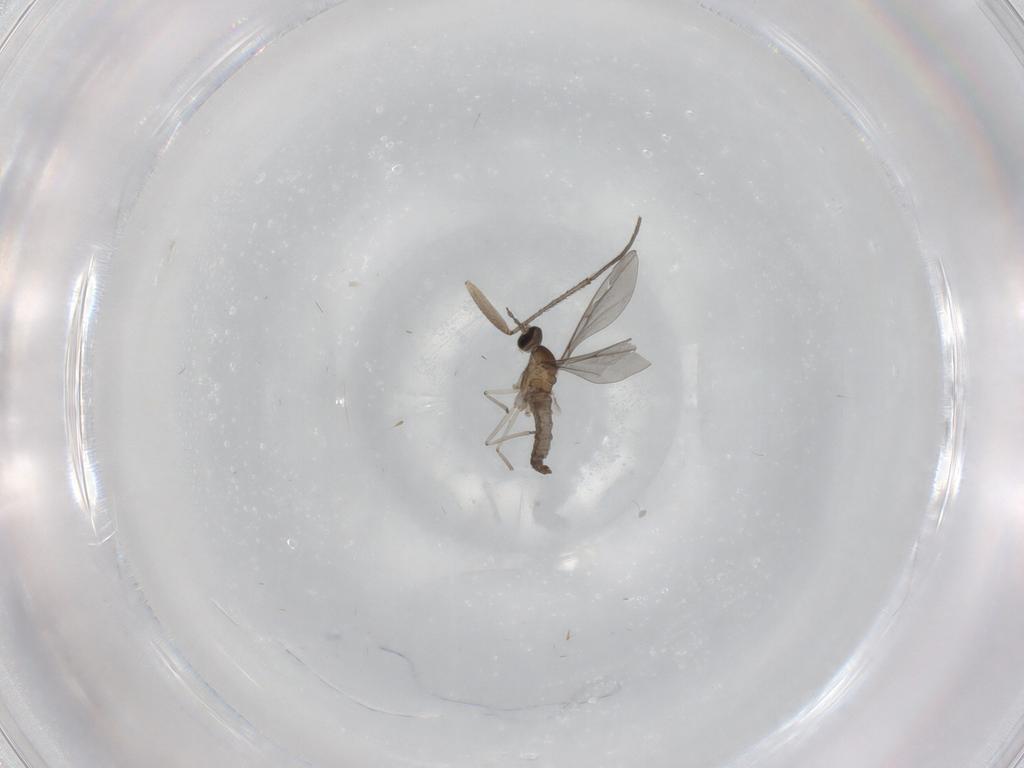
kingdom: Animalia
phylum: Arthropoda
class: Insecta
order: Diptera
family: Sciaridae
